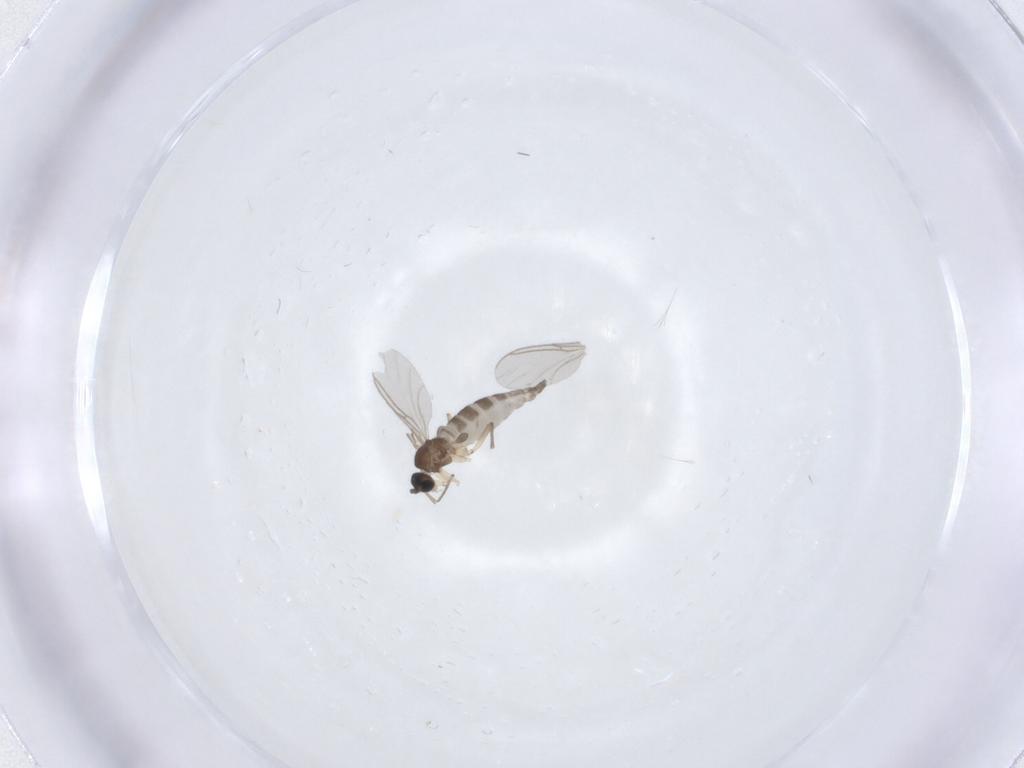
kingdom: Animalia
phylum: Arthropoda
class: Insecta
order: Diptera
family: Sciaridae
